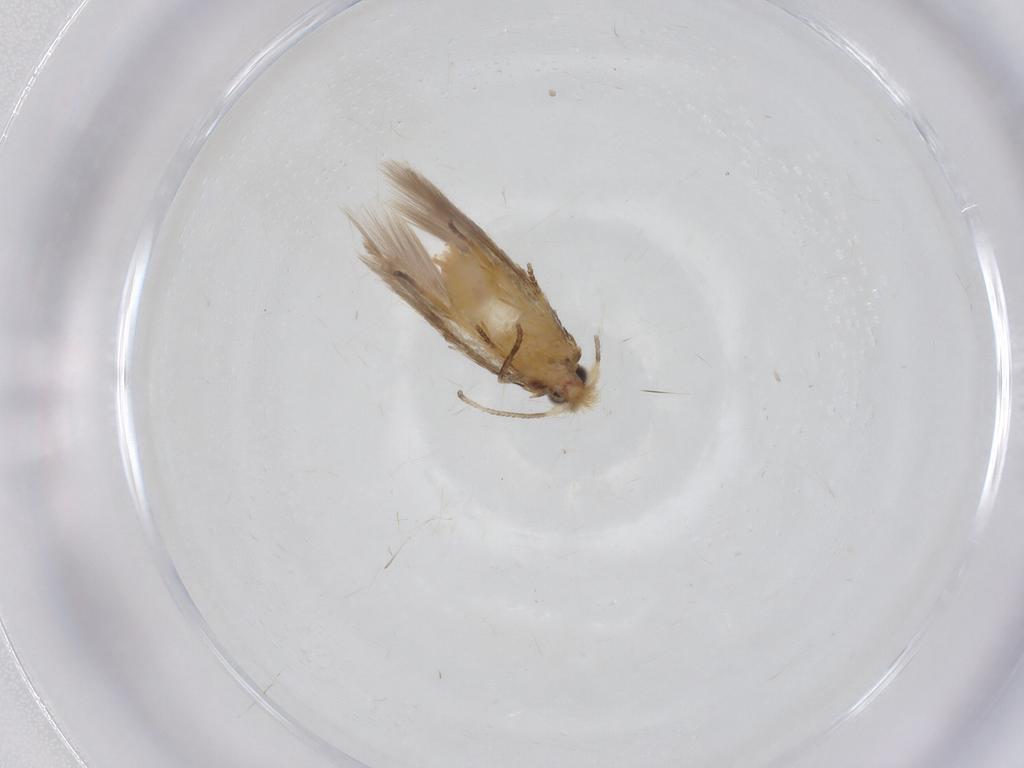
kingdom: Animalia
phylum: Arthropoda
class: Insecta
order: Lepidoptera
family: Nepticulidae
